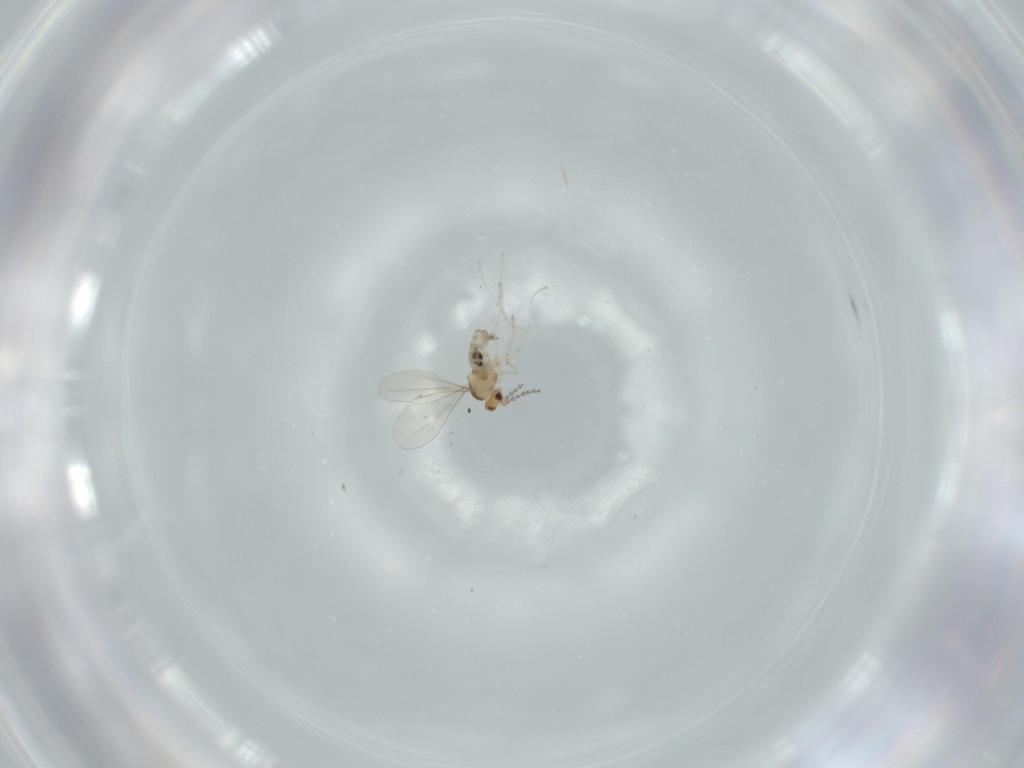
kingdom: Animalia
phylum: Arthropoda
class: Insecta
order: Diptera
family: Cecidomyiidae
